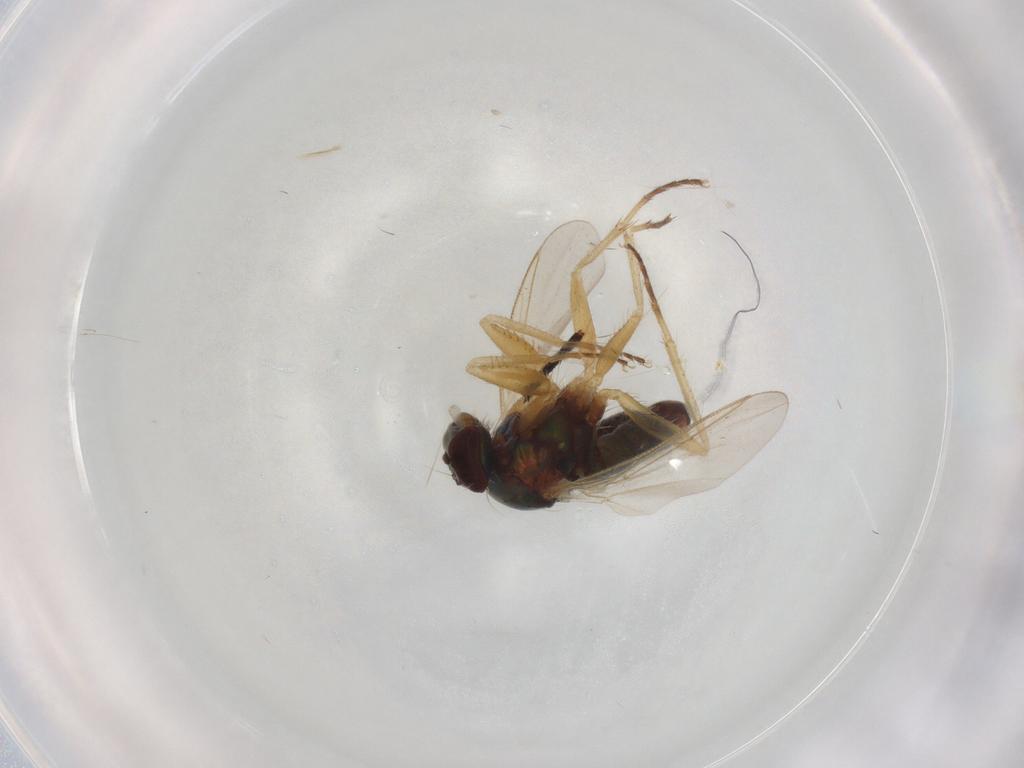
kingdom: Animalia
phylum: Arthropoda
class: Insecta
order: Diptera
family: Dolichopodidae
